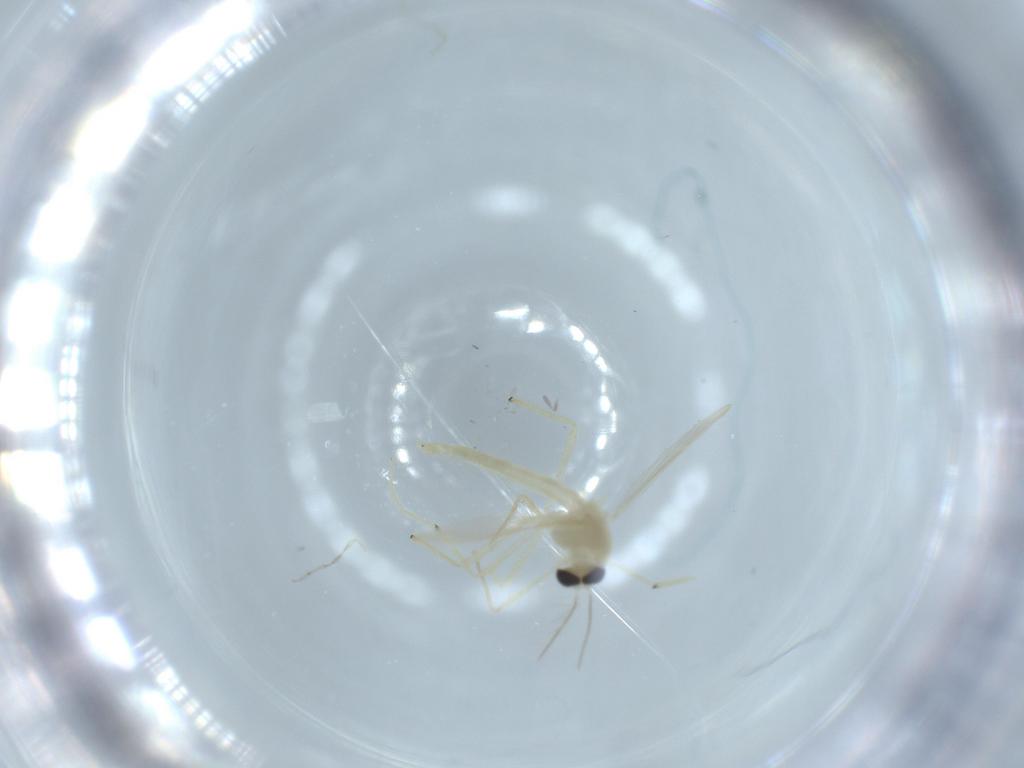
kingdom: Animalia
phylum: Arthropoda
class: Insecta
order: Diptera
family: Chironomidae
